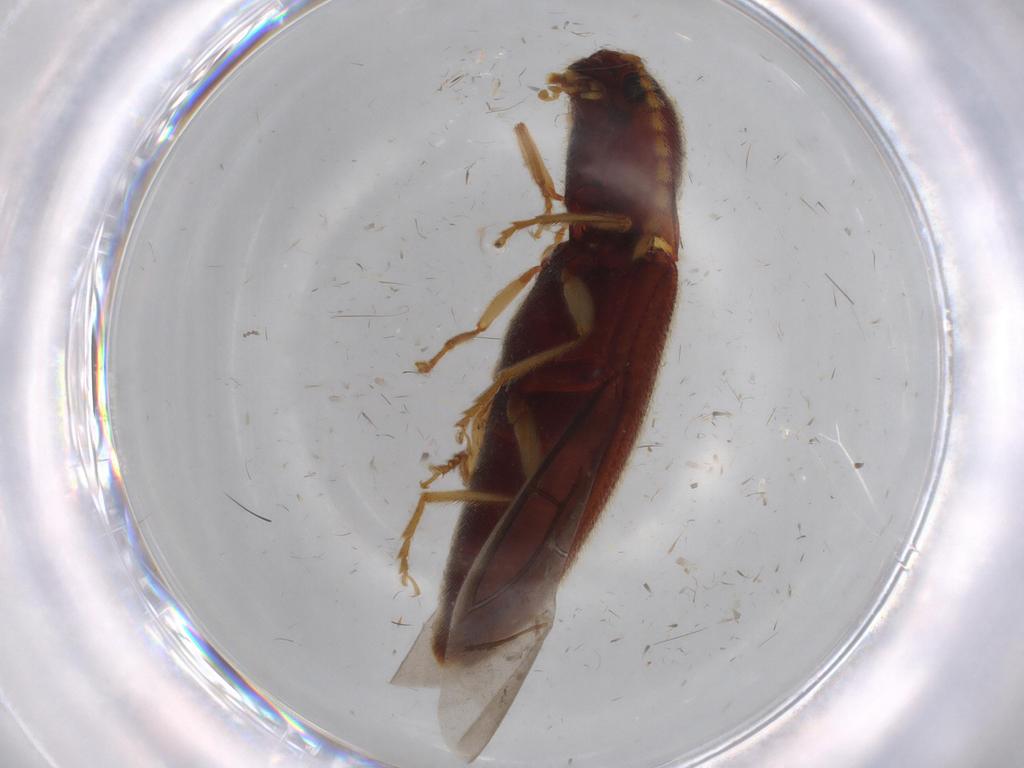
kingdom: Animalia
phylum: Arthropoda
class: Insecta
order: Coleoptera
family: Elateridae
